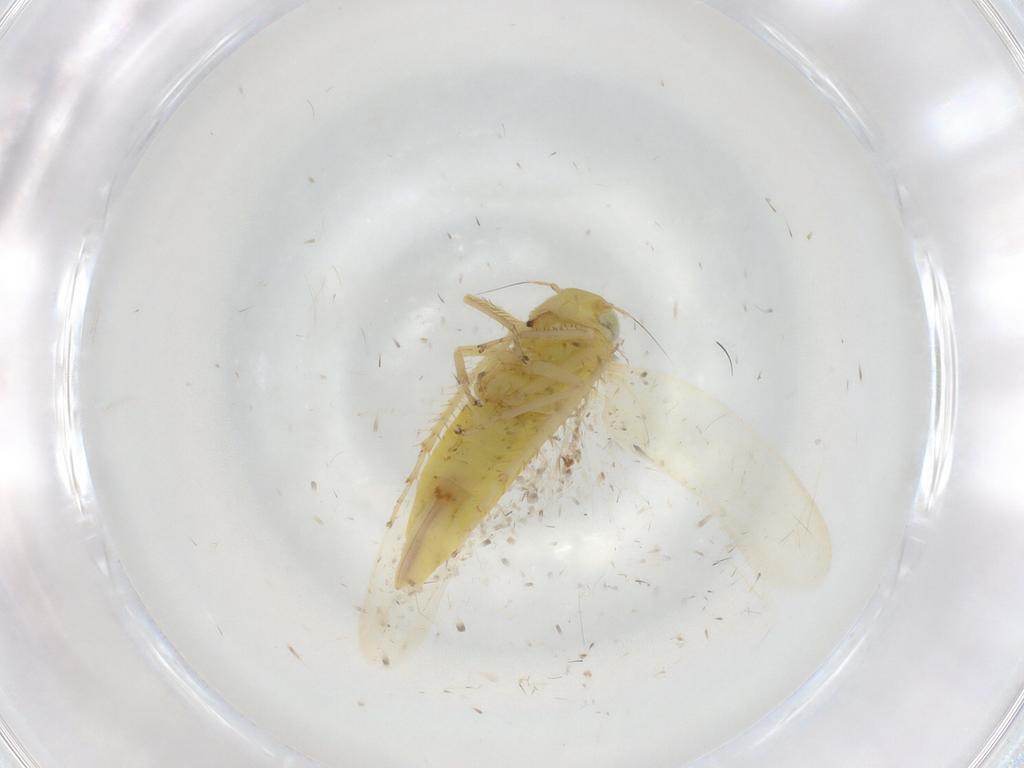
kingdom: Animalia
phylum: Arthropoda
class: Insecta
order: Hemiptera
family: Cicadellidae
